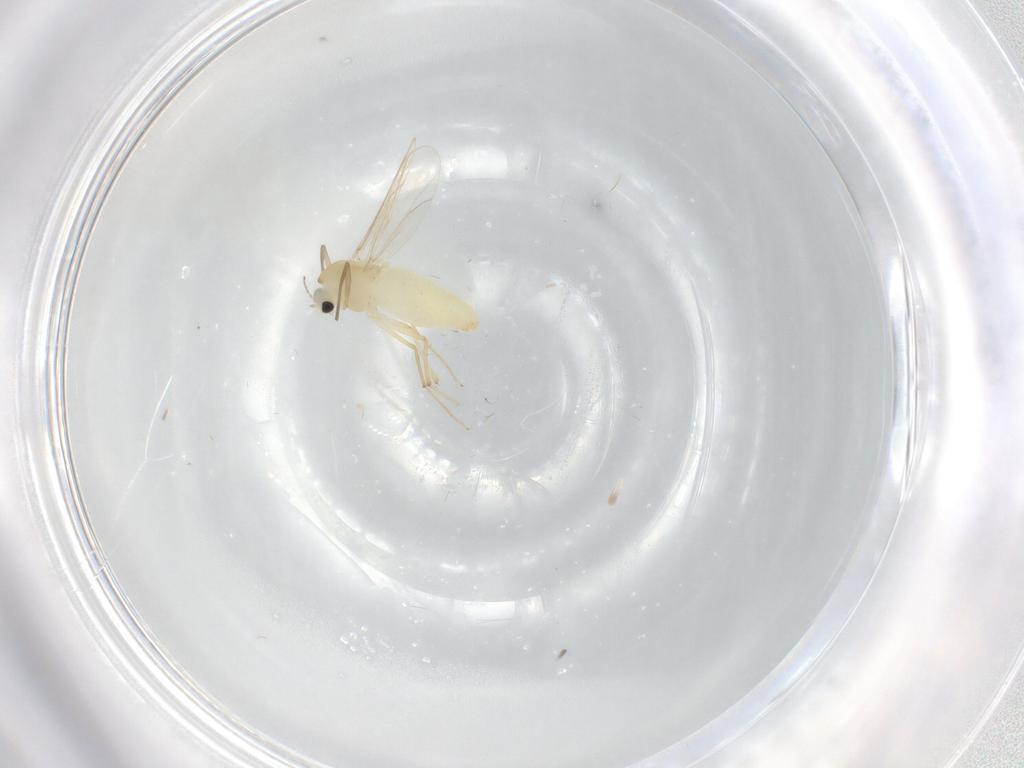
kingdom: Animalia
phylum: Arthropoda
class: Insecta
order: Diptera
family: Chironomidae
